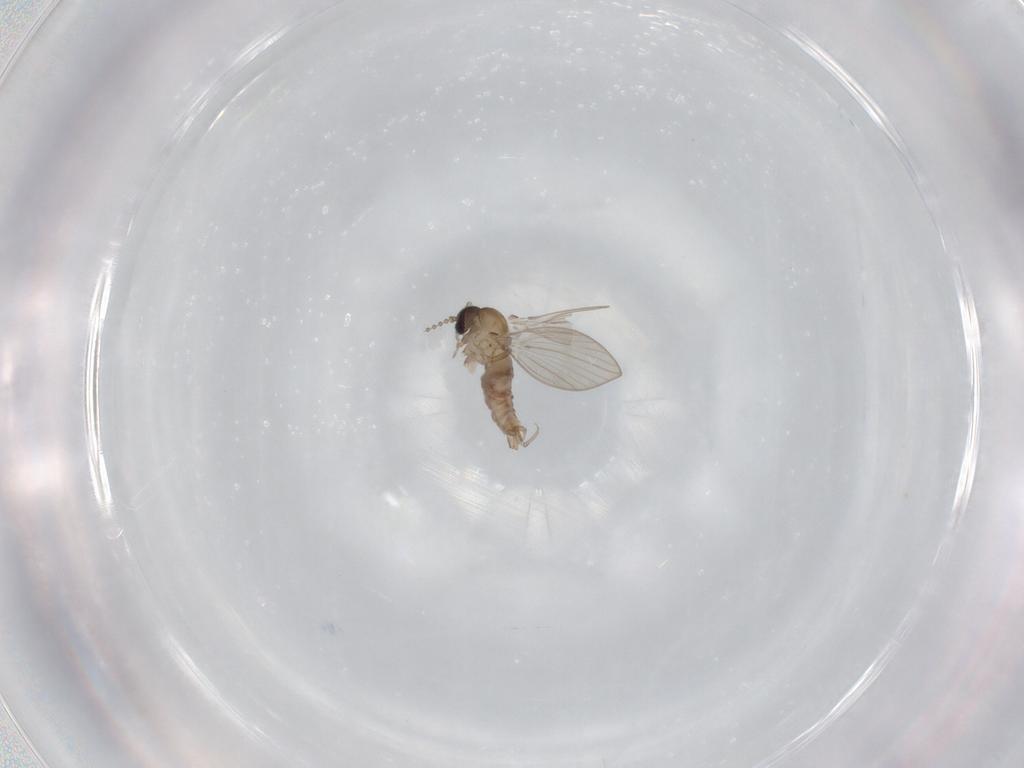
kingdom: Animalia
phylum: Arthropoda
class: Insecta
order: Diptera
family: Psychodidae
